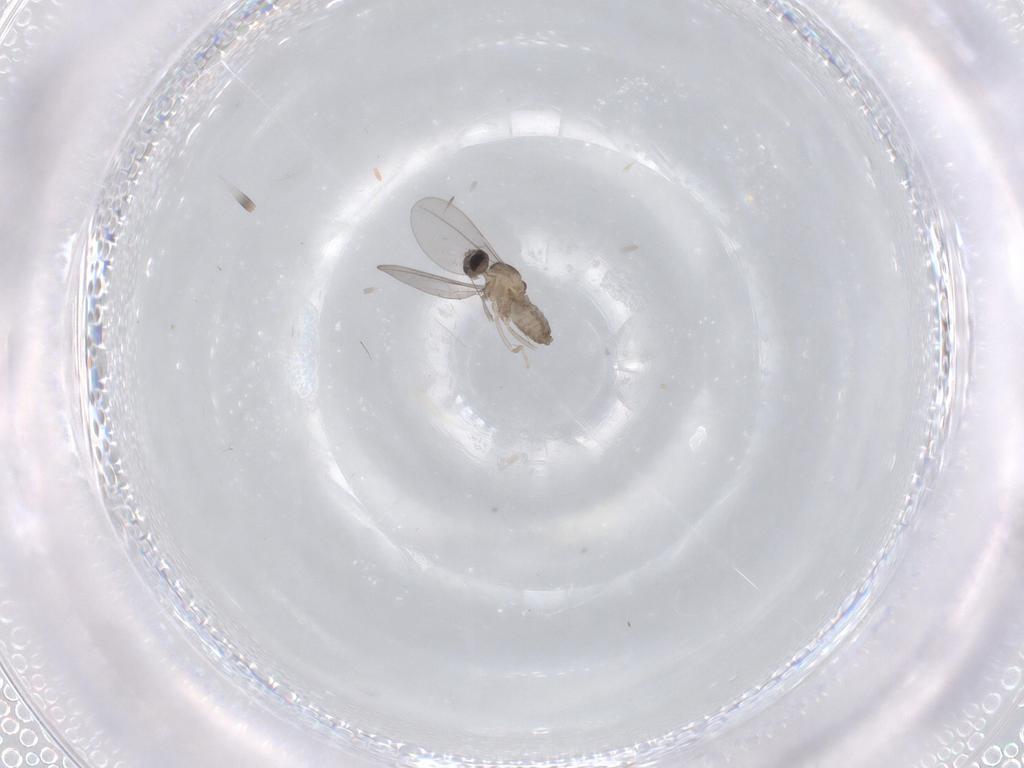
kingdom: Animalia
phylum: Arthropoda
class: Insecta
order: Diptera
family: Cecidomyiidae
